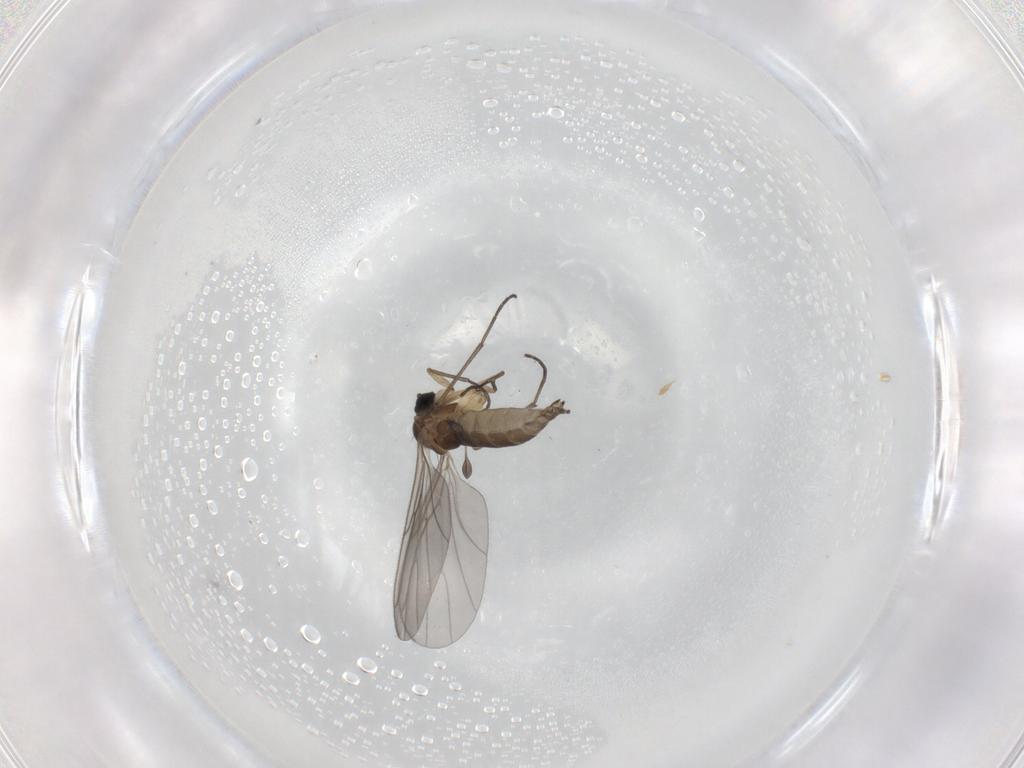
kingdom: Animalia
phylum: Arthropoda
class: Insecta
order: Diptera
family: Sciaridae
